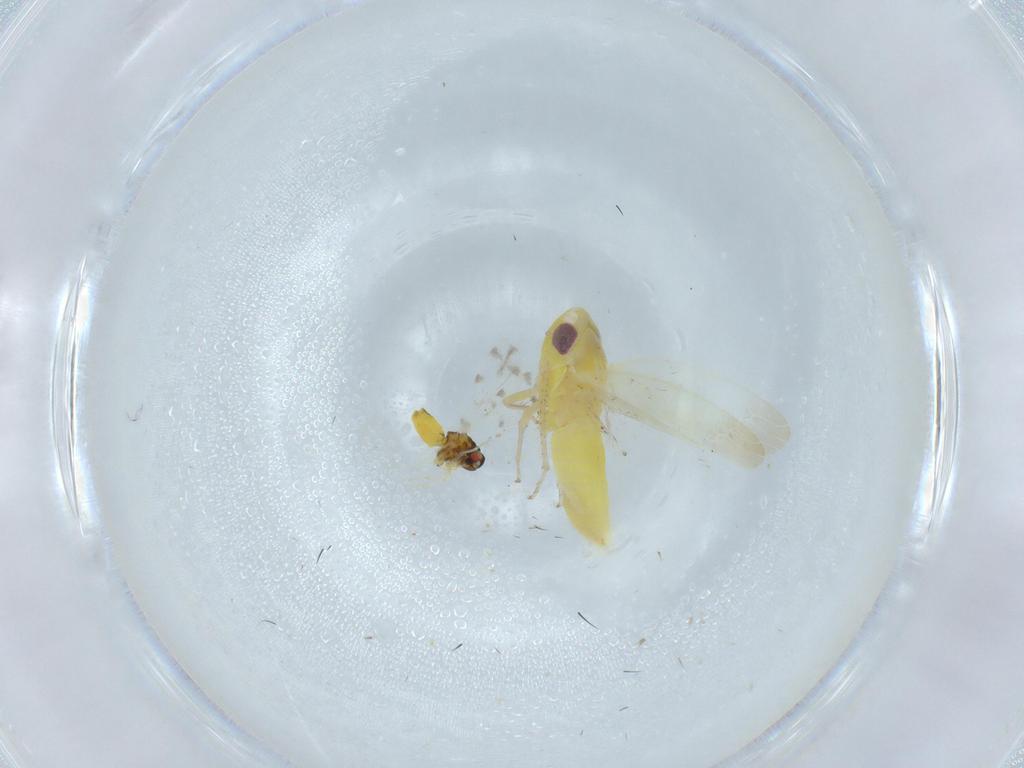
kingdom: Animalia
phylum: Arthropoda
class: Insecta
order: Hemiptera
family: Aleyrodidae
